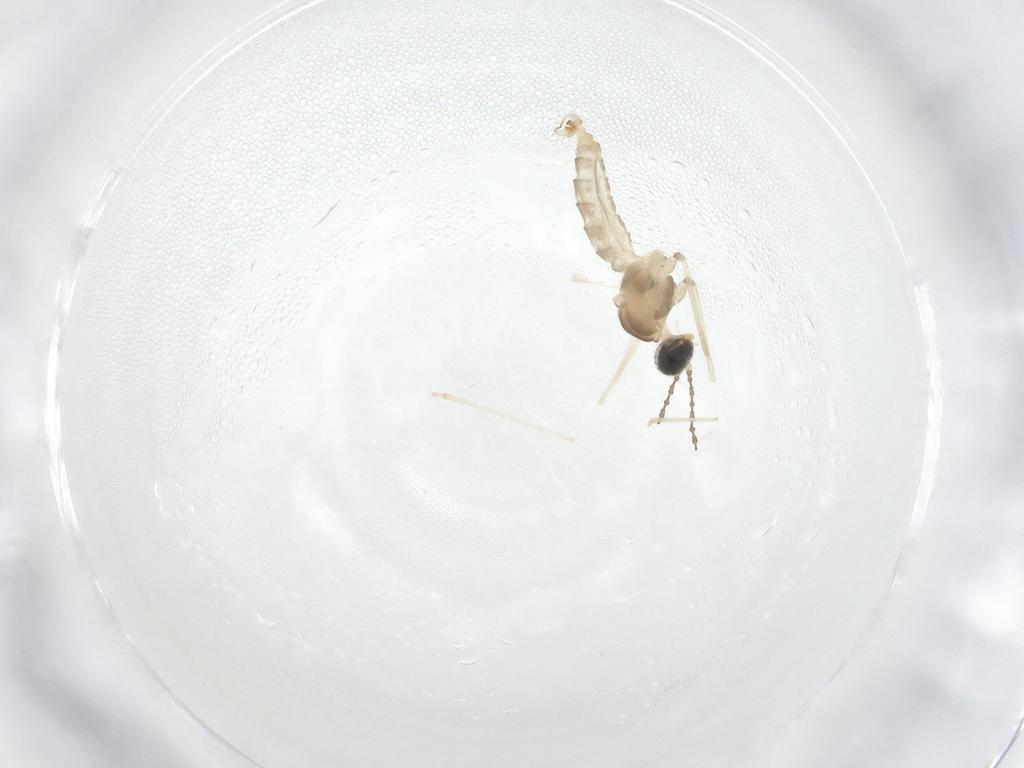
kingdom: Animalia
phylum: Arthropoda
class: Insecta
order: Diptera
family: Cecidomyiidae
